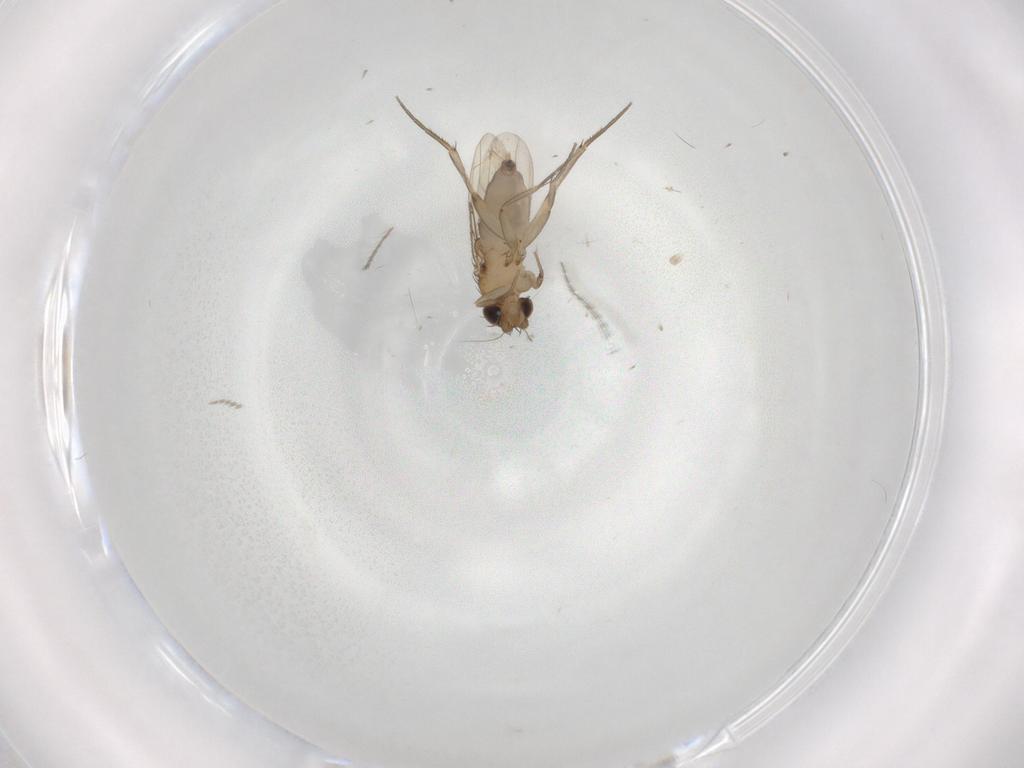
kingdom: Animalia
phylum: Arthropoda
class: Insecta
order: Diptera
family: Phoridae
